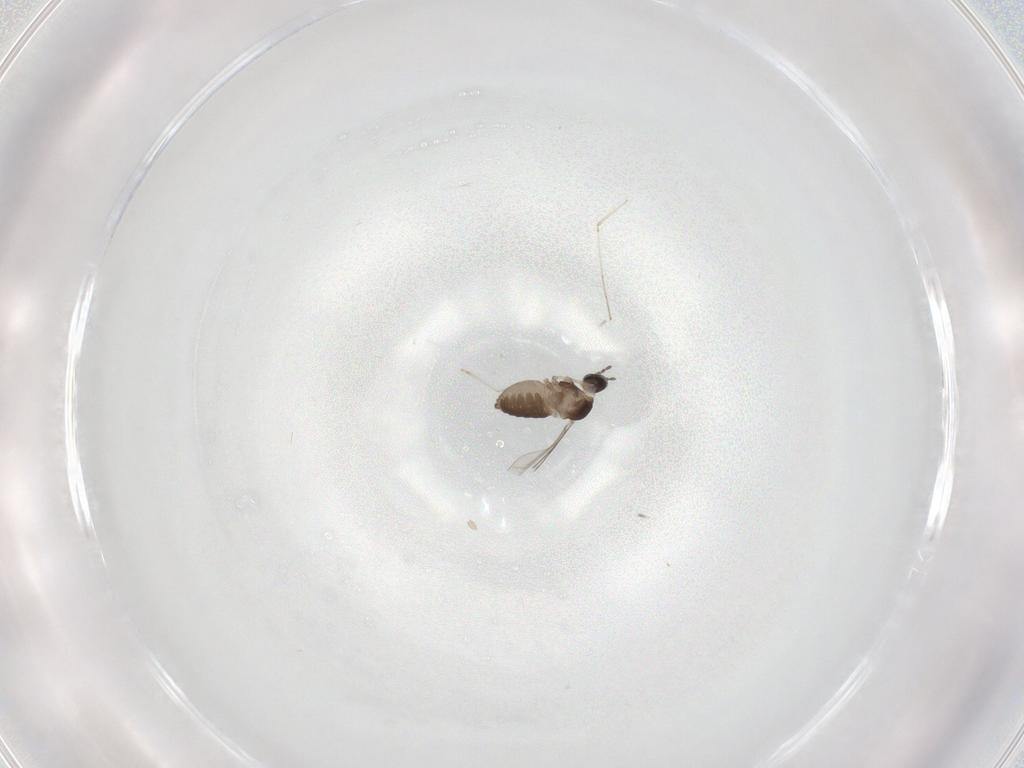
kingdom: Animalia
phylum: Arthropoda
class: Insecta
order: Diptera
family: Cecidomyiidae
